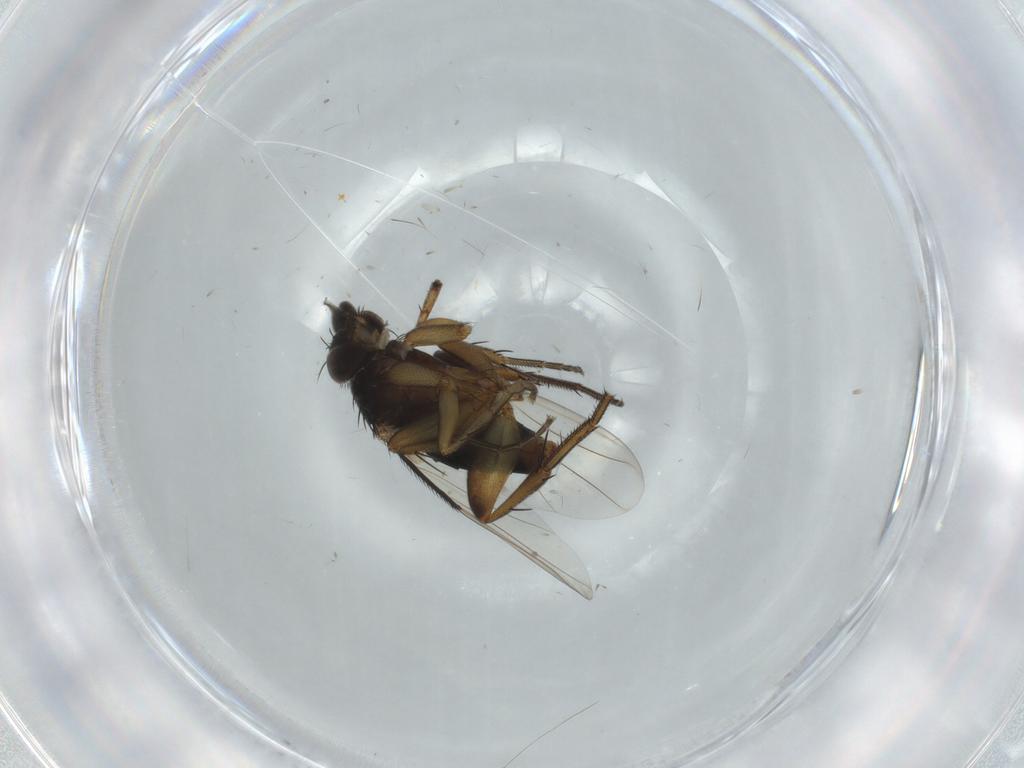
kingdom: Animalia
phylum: Arthropoda
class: Insecta
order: Diptera
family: Phoridae
